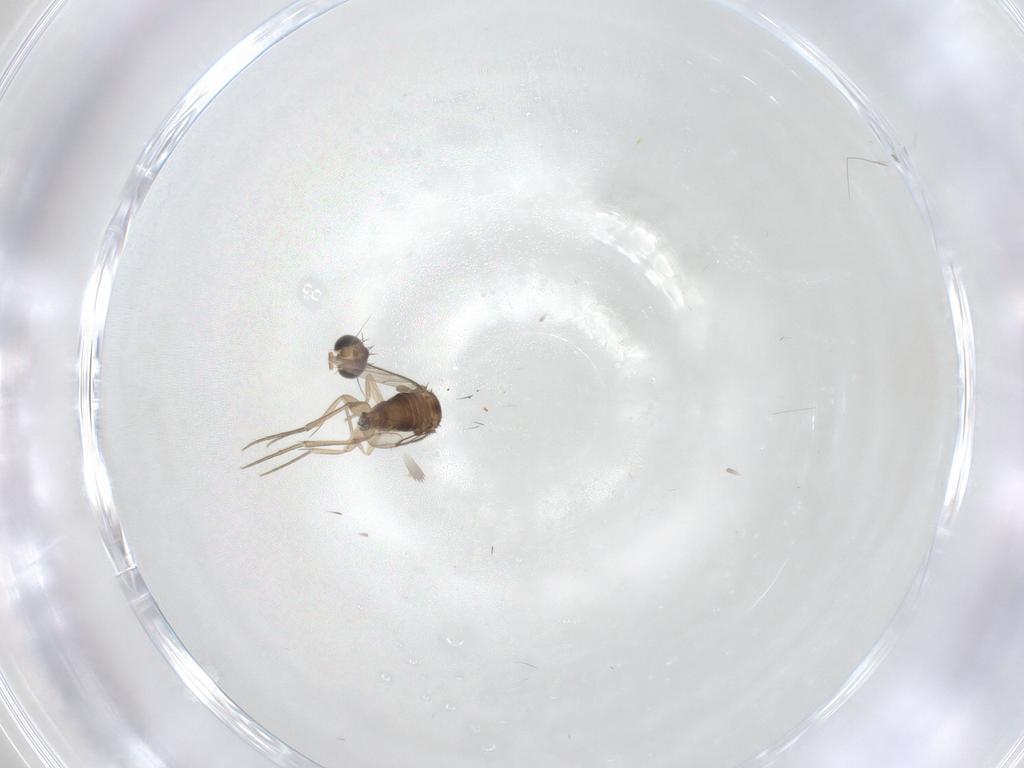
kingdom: Animalia
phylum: Arthropoda
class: Insecta
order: Diptera
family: Phoridae
